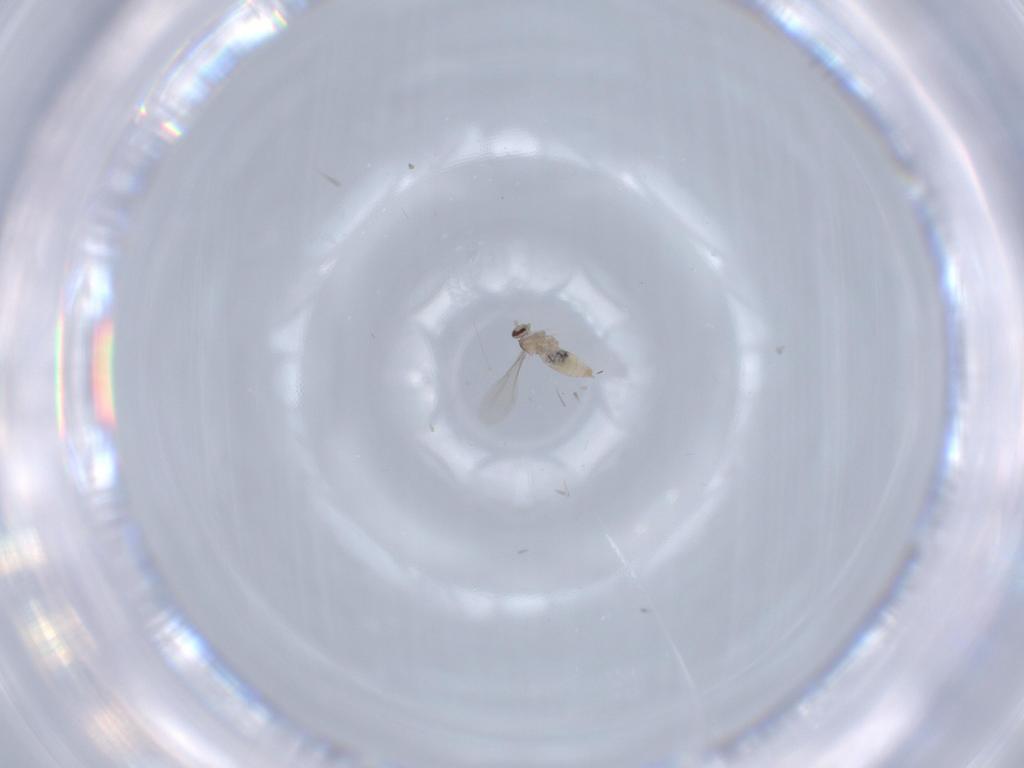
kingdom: Animalia
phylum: Arthropoda
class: Insecta
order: Diptera
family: Cecidomyiidae
